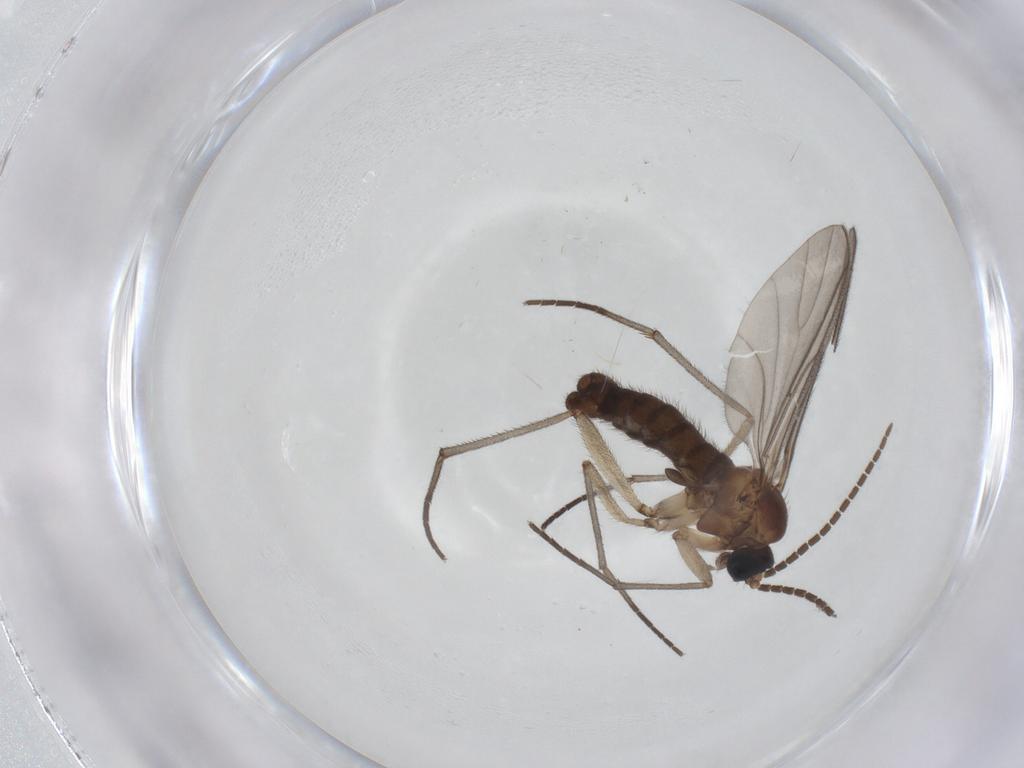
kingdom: Animalia
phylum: Arthropoda
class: Insecta
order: Diptera
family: Sciaridae
